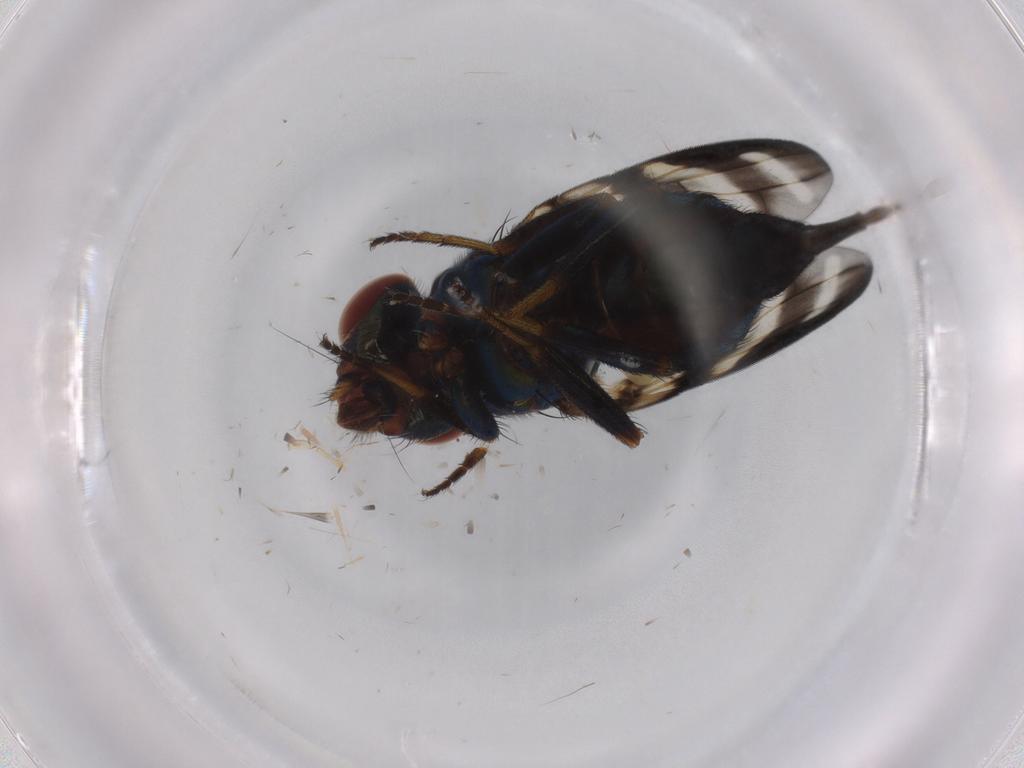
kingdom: Animalia
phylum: Arthropoda
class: Insecta
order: Diptera
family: Ulidiidae
